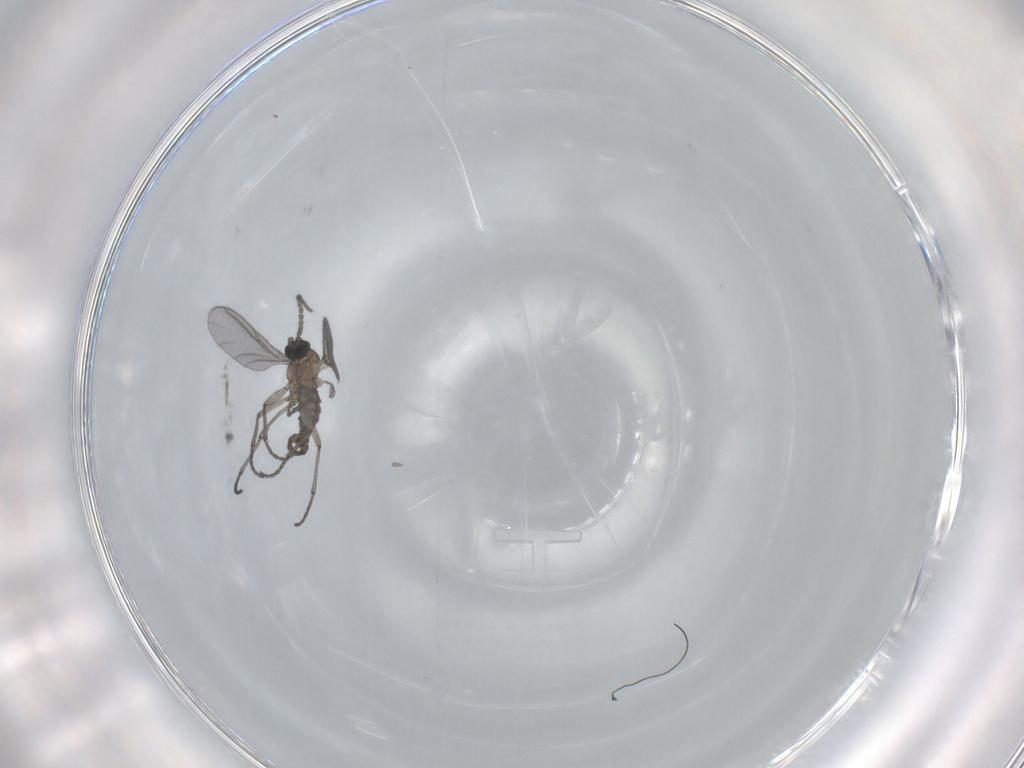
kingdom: Animalia
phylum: Arthropoda
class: Insecta
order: Diptera
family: Sciaridae
